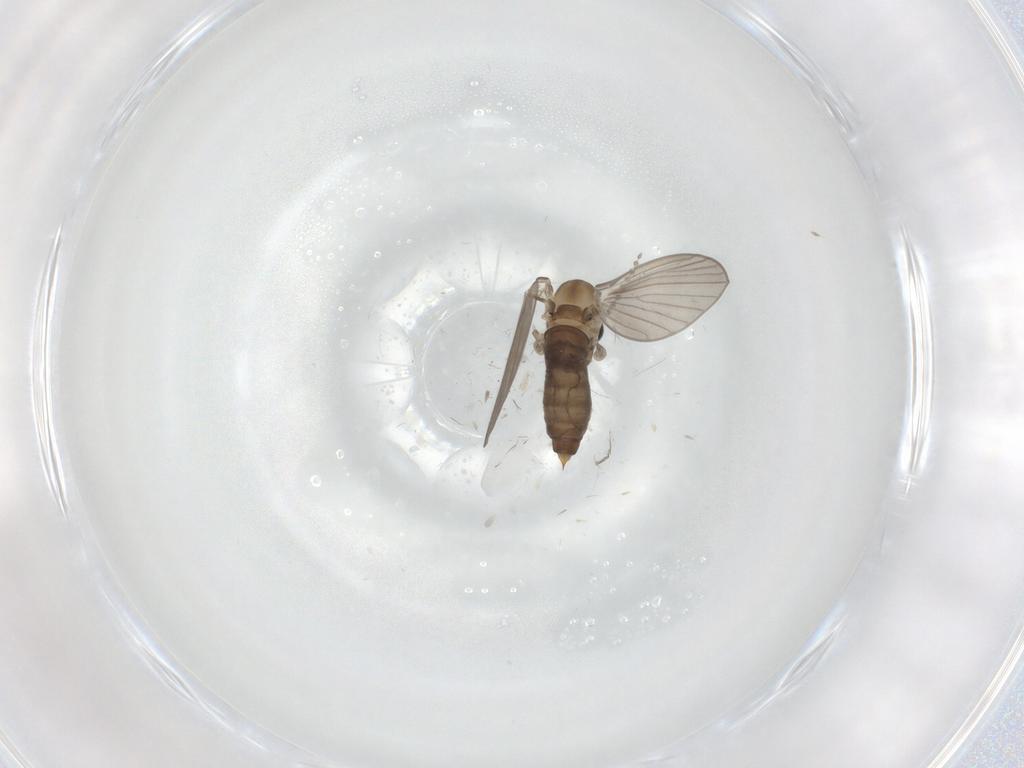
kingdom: Animalia
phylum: Arthropoda
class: Insecta
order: Diptera
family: Psychodidae
